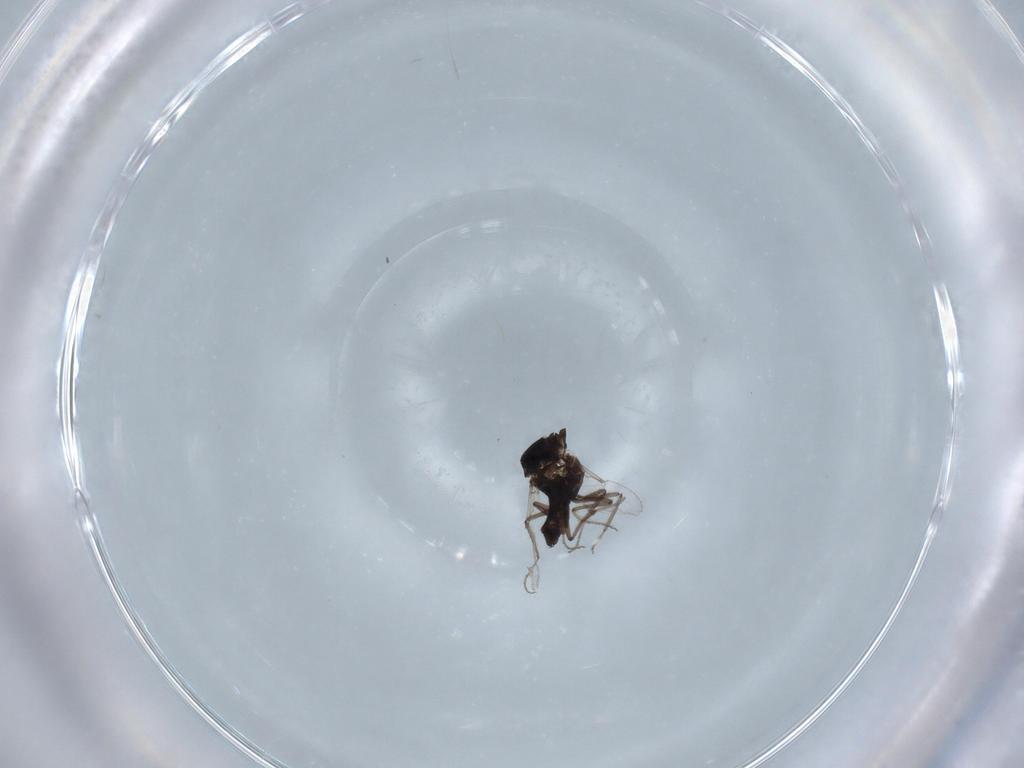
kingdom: Animalia
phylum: Arthropoda
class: Insecta
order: Diptera
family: Ceratopogonidae
